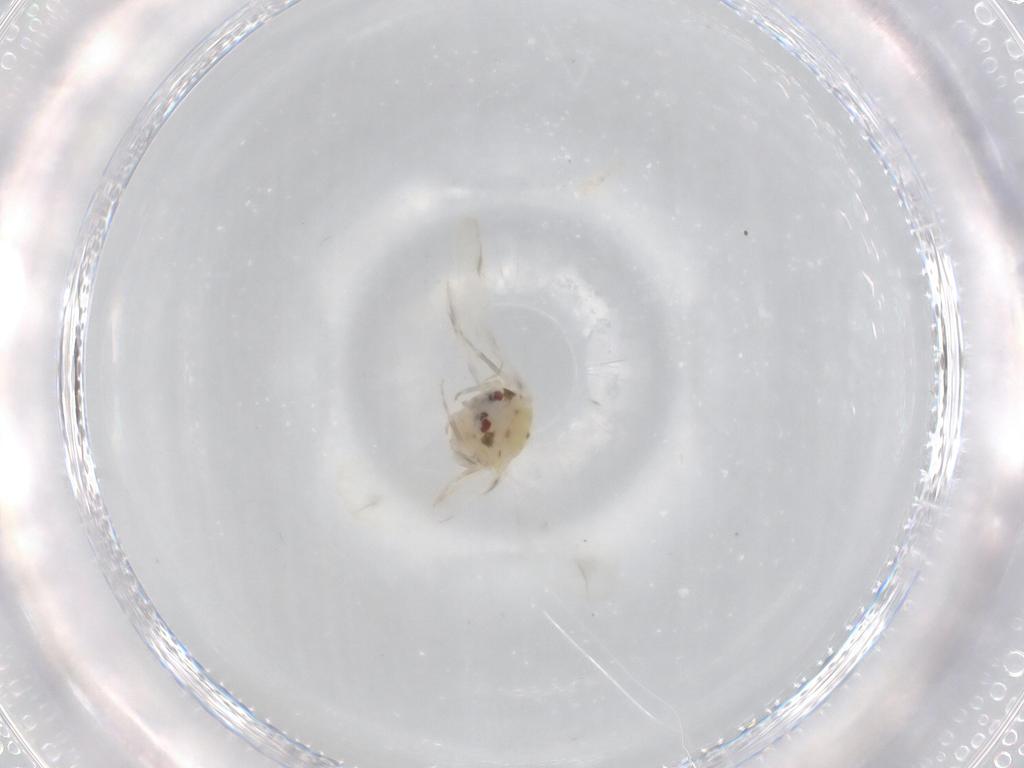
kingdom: Animalia
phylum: Arthropoda
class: Insecta
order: Hemiptera
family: Aleyrodidae
